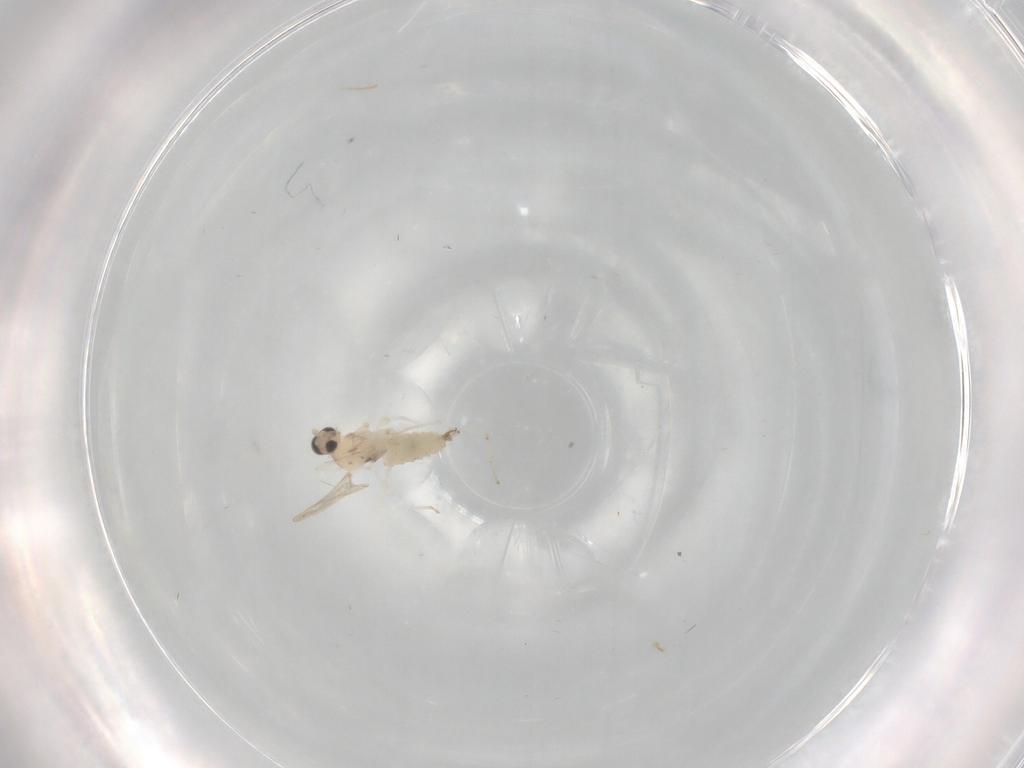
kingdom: Animalia
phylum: Arthropoda
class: Insecta
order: Diptera
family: Cecidomyiidae
